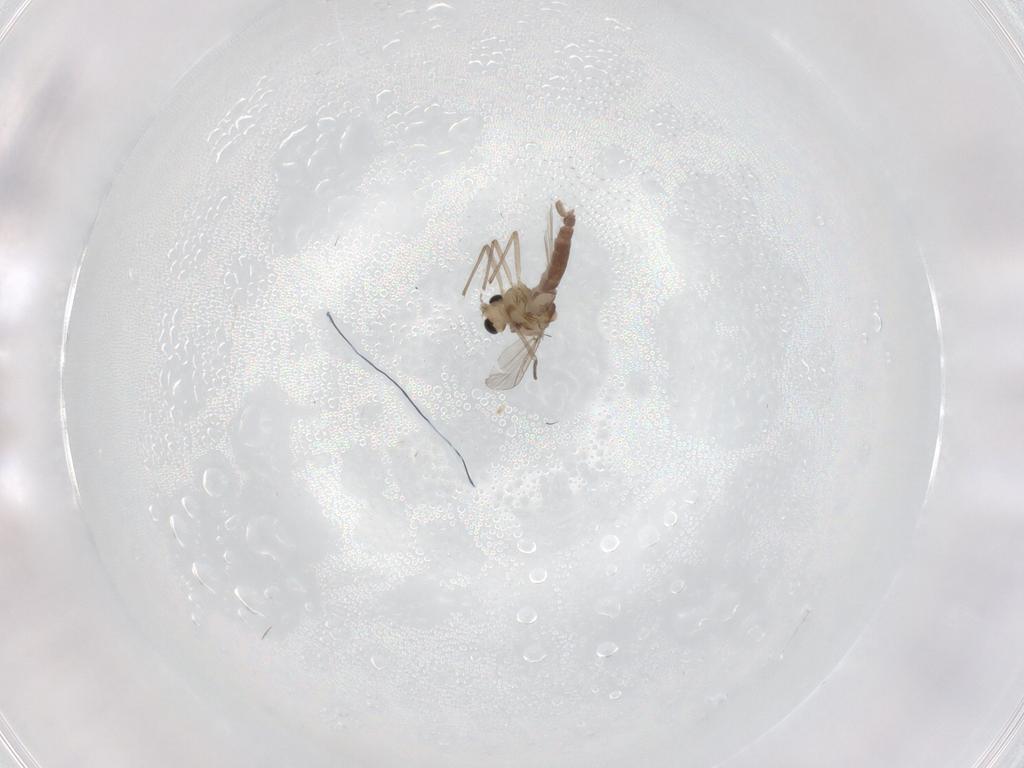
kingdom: Animalia
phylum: Arthropoda
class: Insecta
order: Diptera
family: Chironomidae
